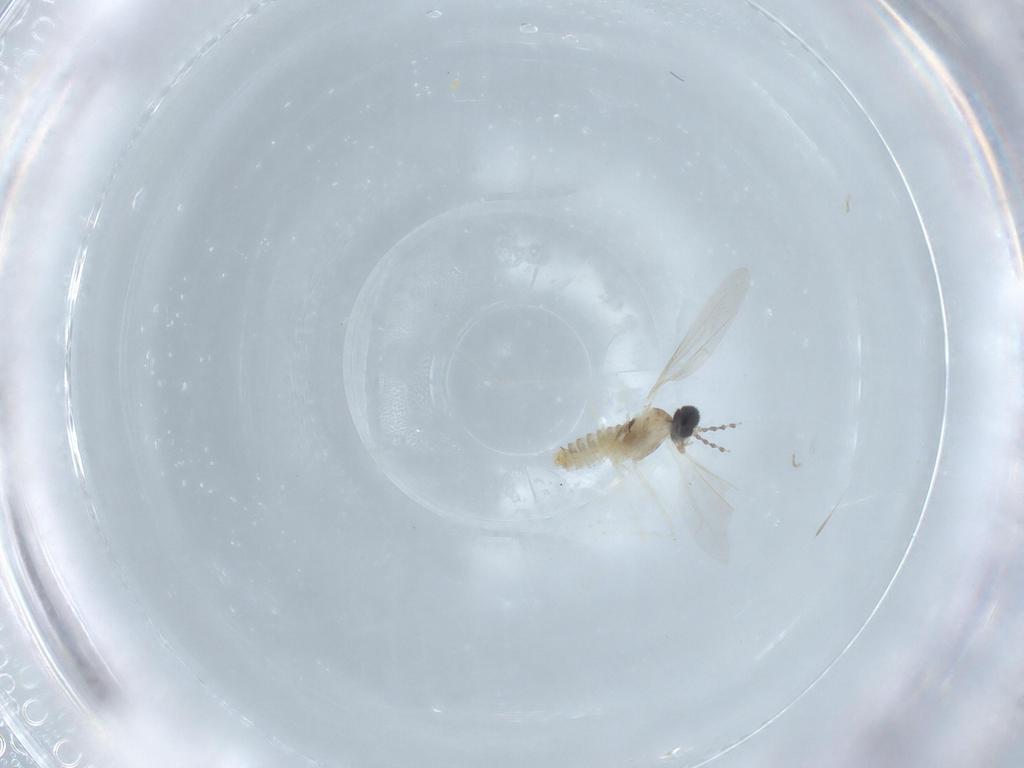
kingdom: Animalia
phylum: Arthropoda
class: Insecta
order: Diptera
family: Cecidomyiidae
